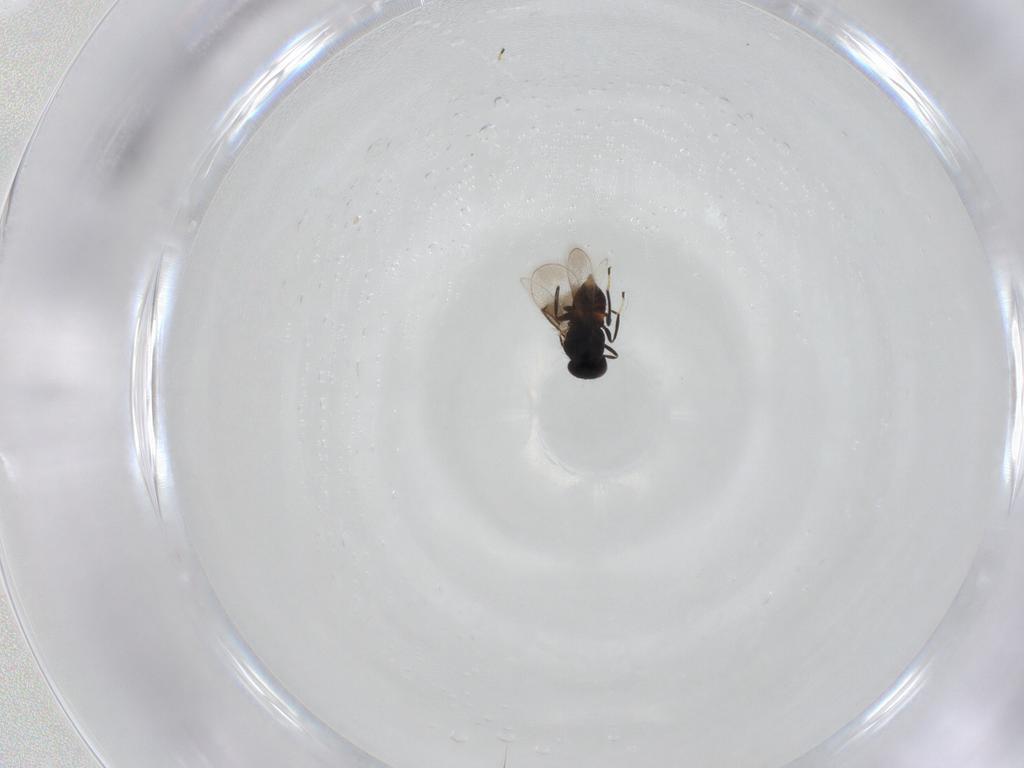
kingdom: Animalia
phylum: Arthropoda
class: Insecta
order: Hymenoptera
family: Eulophidae
